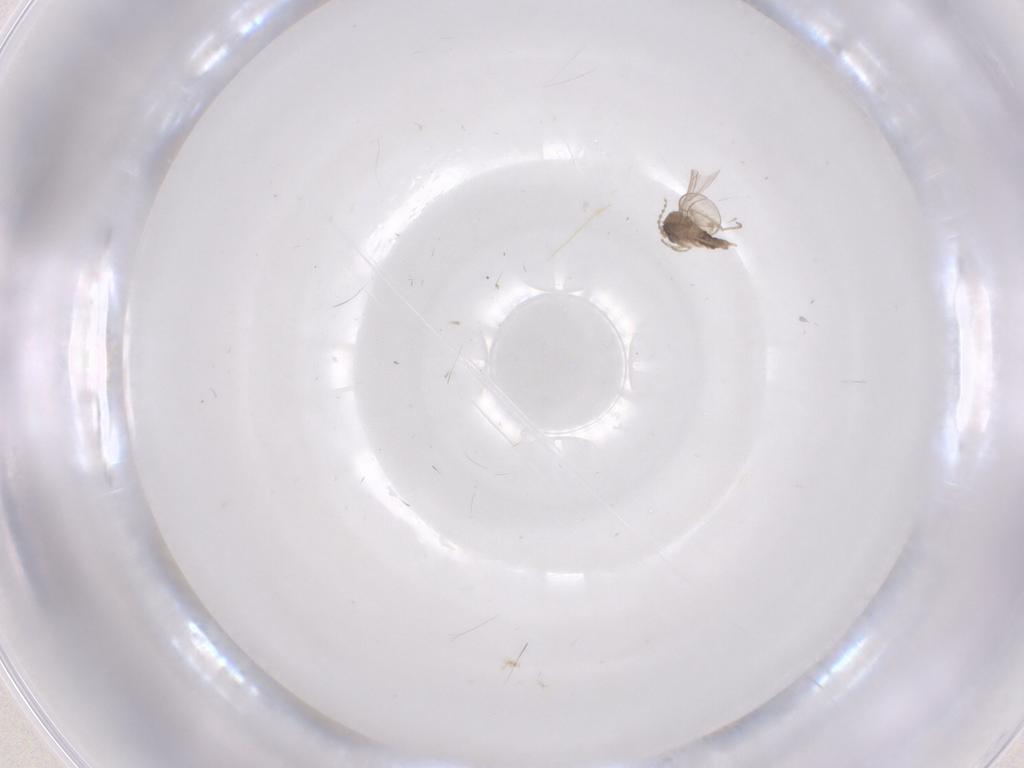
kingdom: Animalia
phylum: Arthropoda
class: Insecta
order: Diptera
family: Cecidomyiidae
